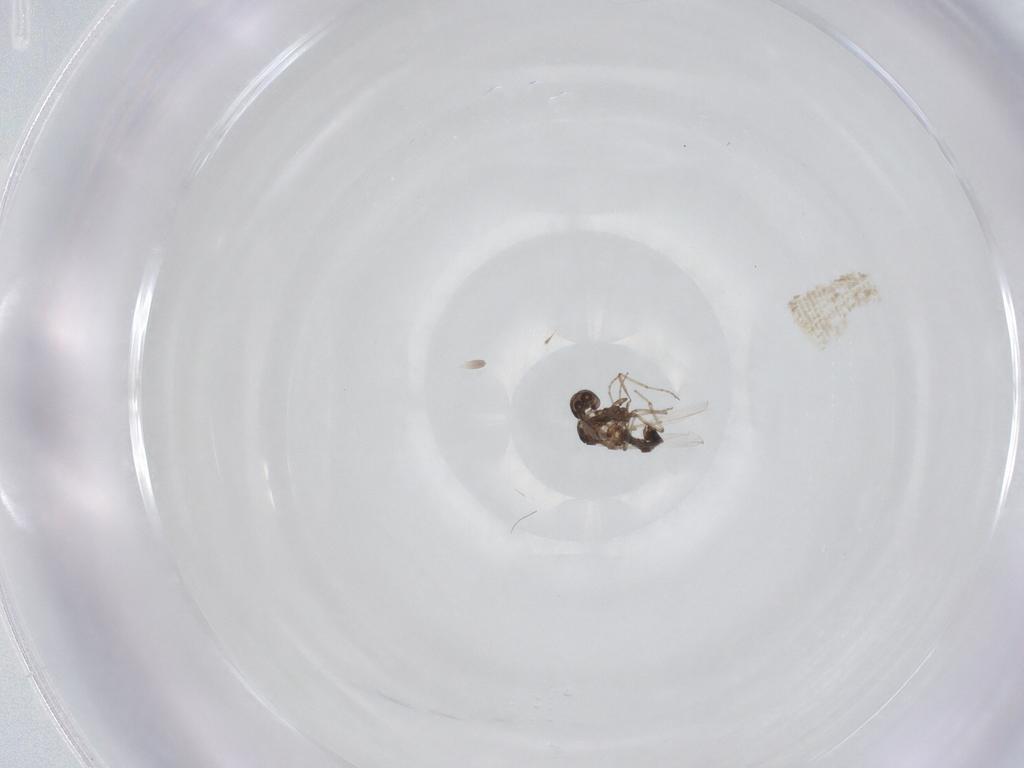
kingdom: Animalia
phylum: Arthropoda
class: Insecta
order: Diptera
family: Ceratopogonidae
